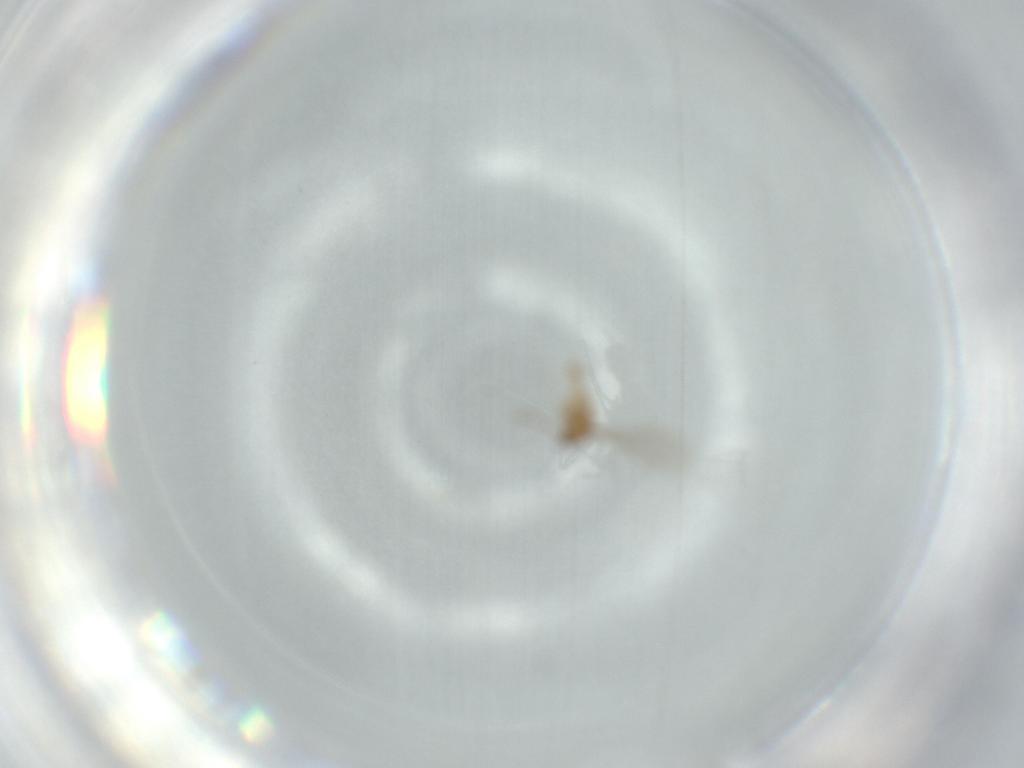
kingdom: Animalia
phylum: Arthropoda
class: Insecta
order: Diptera
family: Cecidomyiidae
